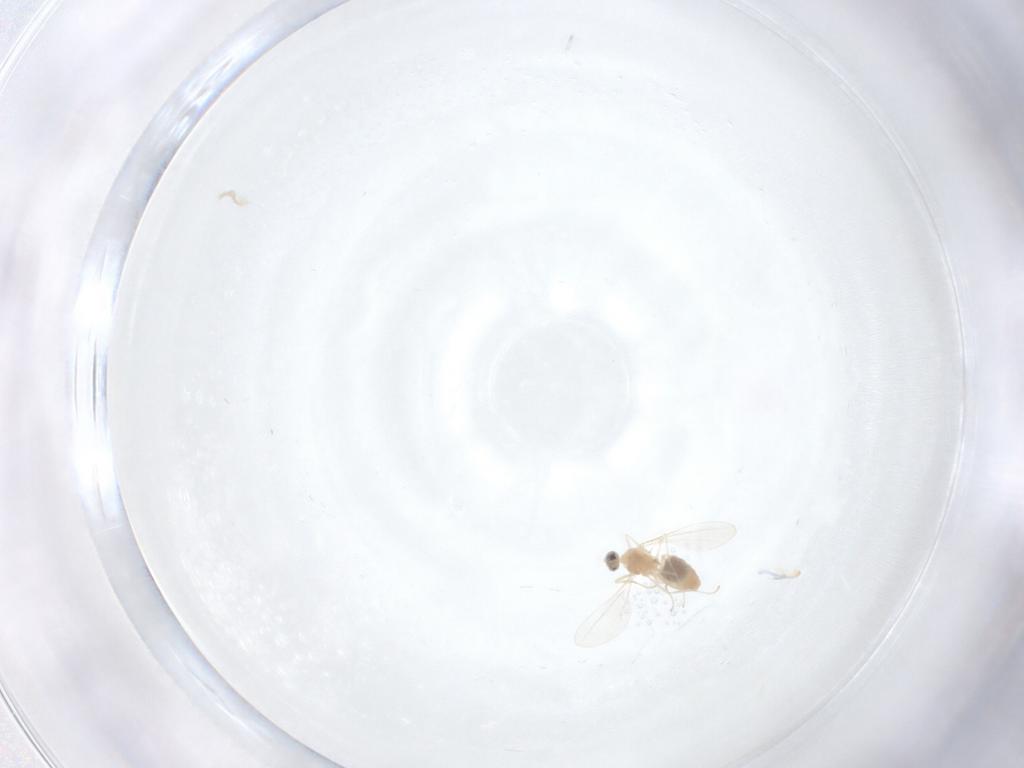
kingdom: Animalia
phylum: Arthropoda
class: Insecta
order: Diptera
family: Cecidomyiidae
